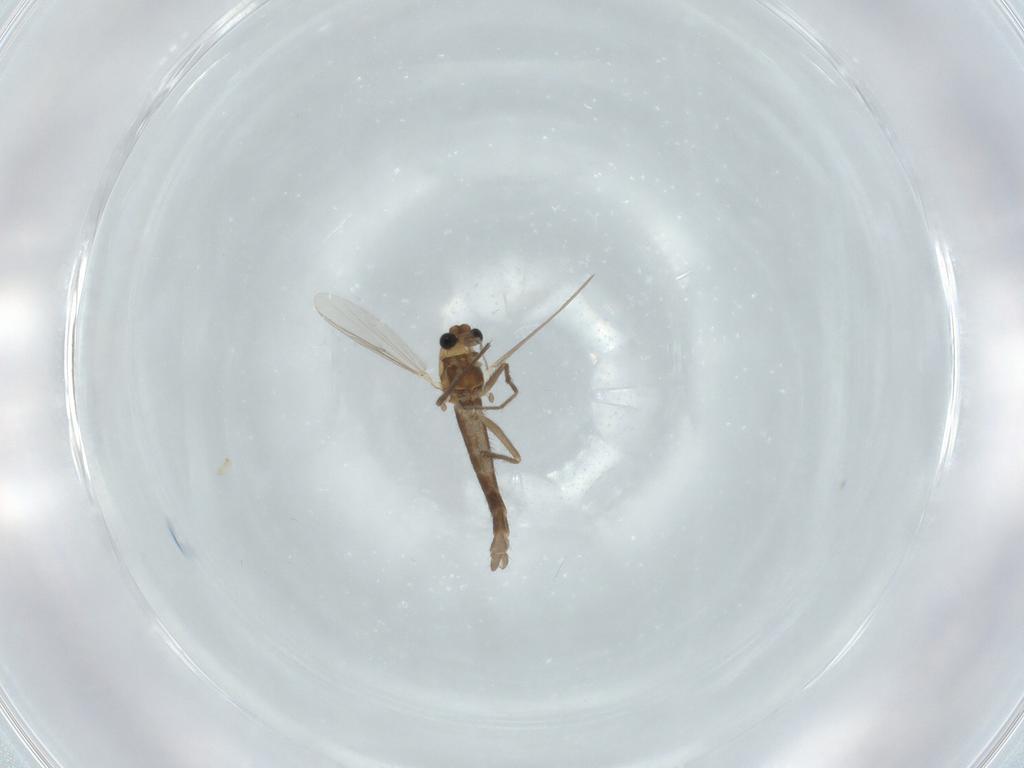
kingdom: Animalia
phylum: Arthropoda
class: Insecta
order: Diptera
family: Chironomidae
